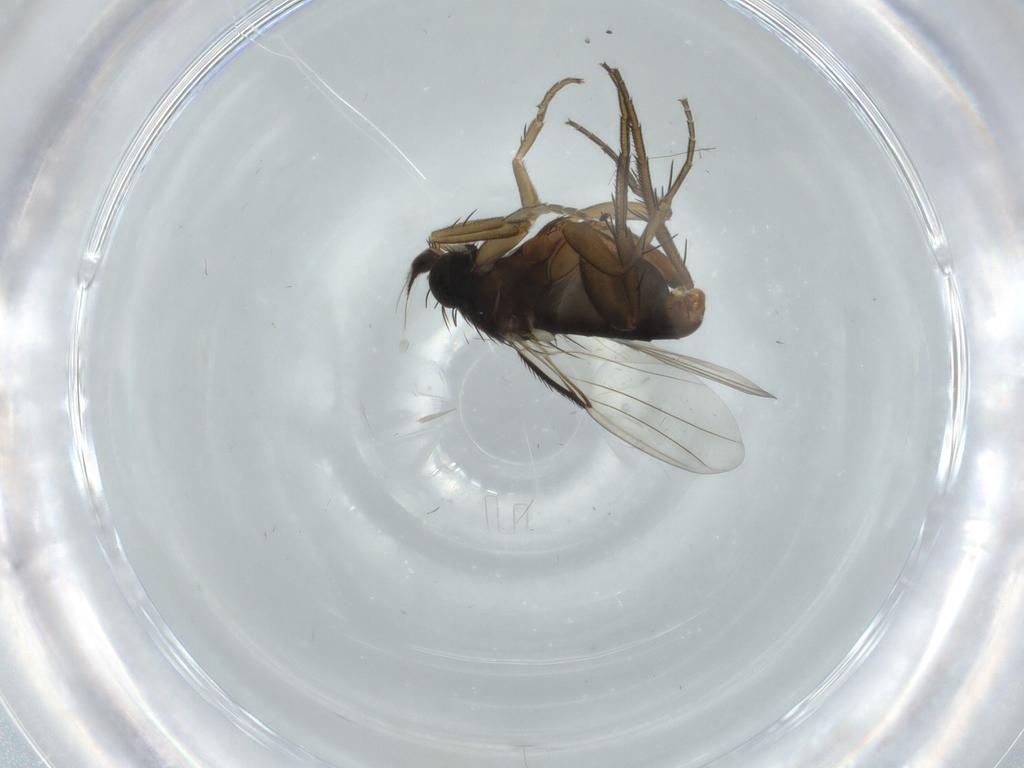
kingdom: Animalia
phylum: Arthropoda
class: Insecta
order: Diptera
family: Phoridae
